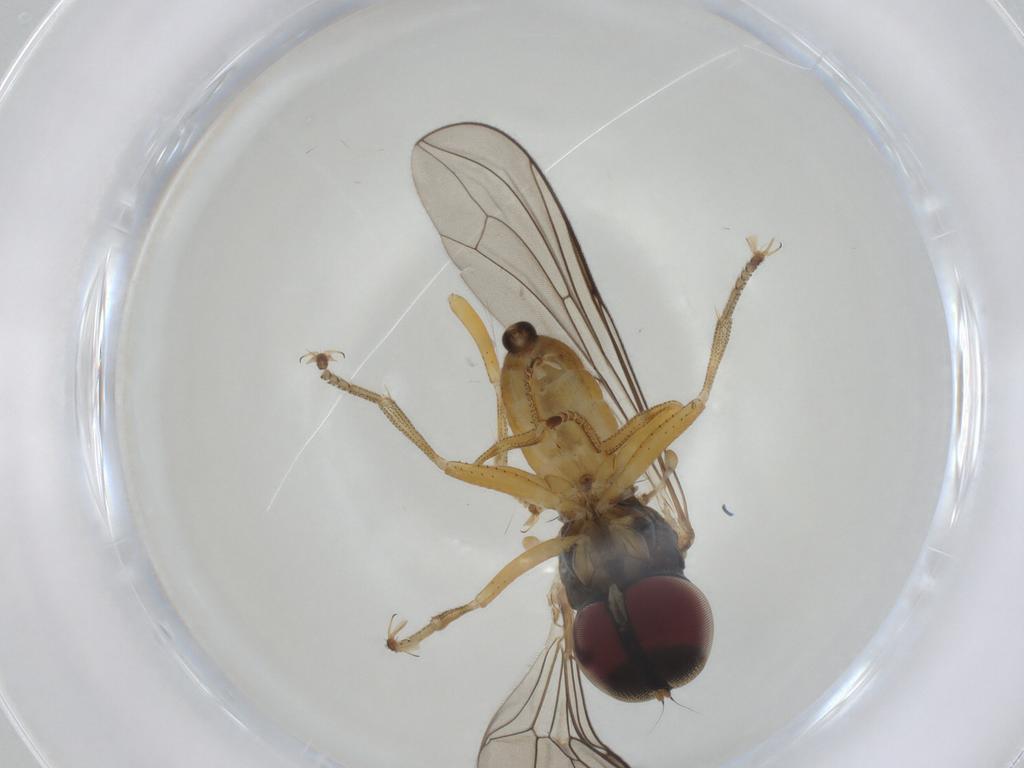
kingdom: Animalia
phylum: Arthropoda
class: Insecta
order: Diptera
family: Pipunculidae
